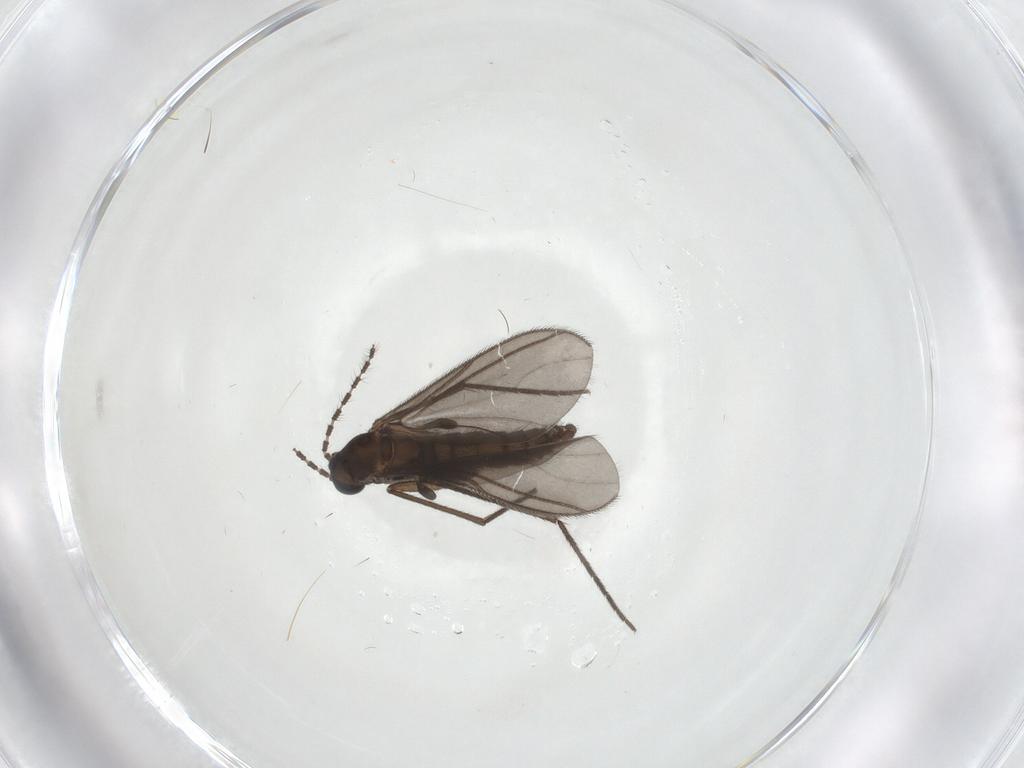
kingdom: Animalia
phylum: Arthropoda
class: Insecta
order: Diptera
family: Sciaridae
